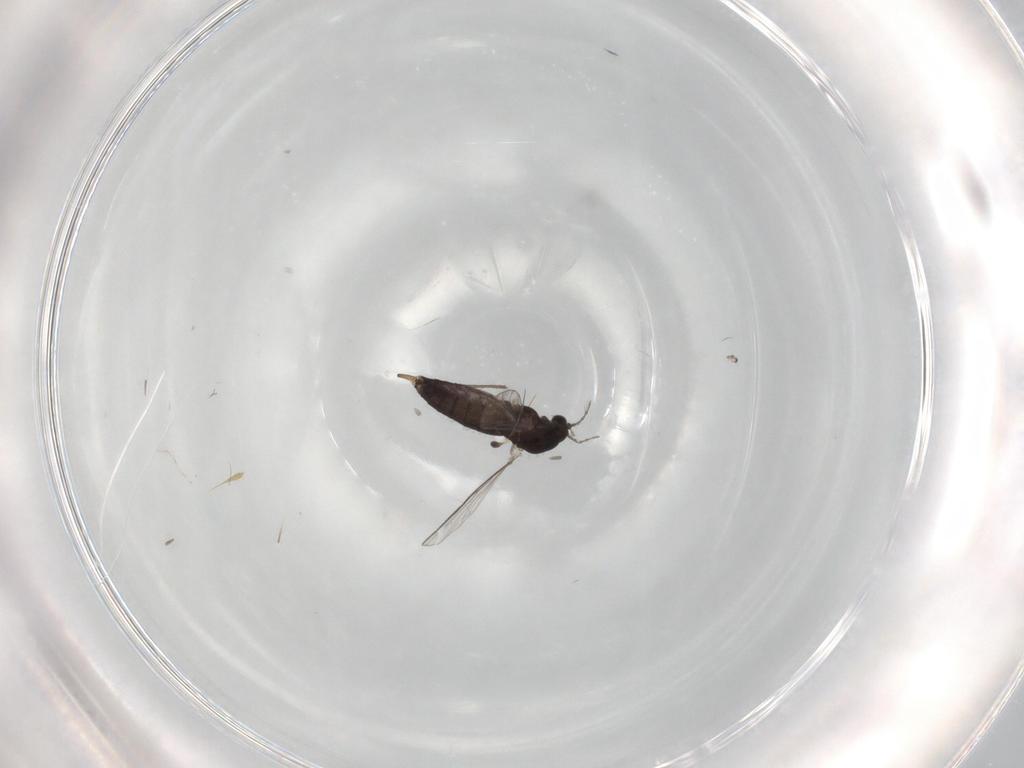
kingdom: Animalia
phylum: Arthropoda
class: Insecta
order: Diptera
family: Chironomidae
